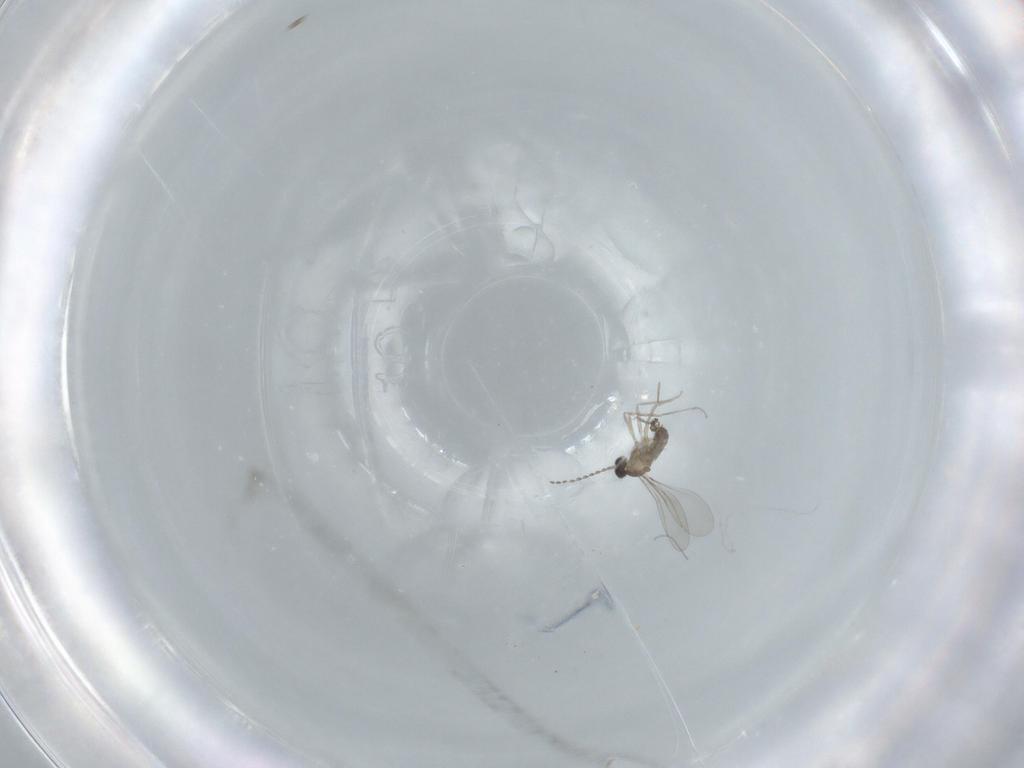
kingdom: Animalia
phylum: Arthropoda
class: Insecta
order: Diptera
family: Cecidomyiidae
